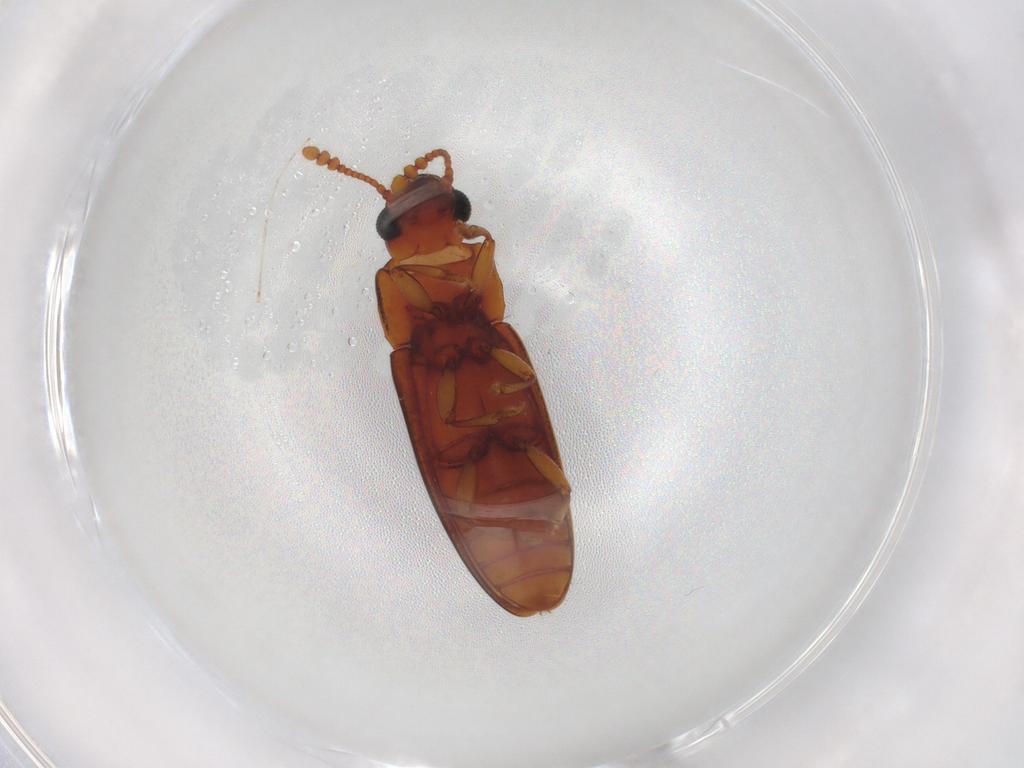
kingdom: Animalia
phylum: Arthropoda
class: Insecta
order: Coleoptera
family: Erotylidae
